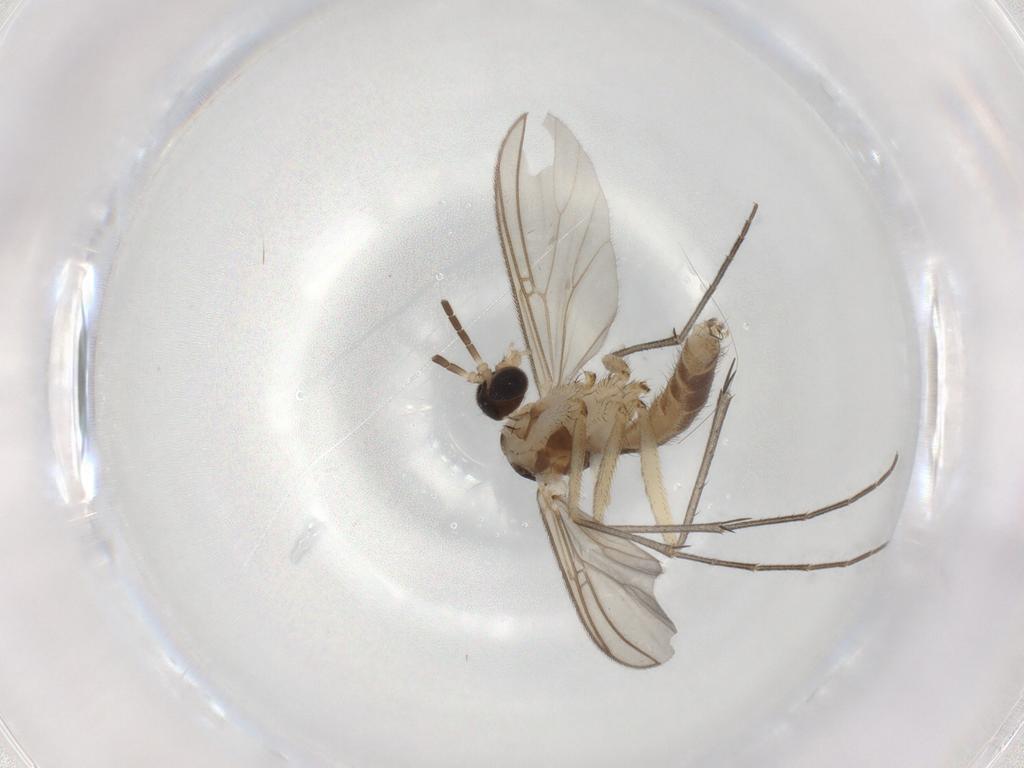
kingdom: Animalia
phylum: Arthropoda
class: Insecta
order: Diptera
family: Mycetophilidae
